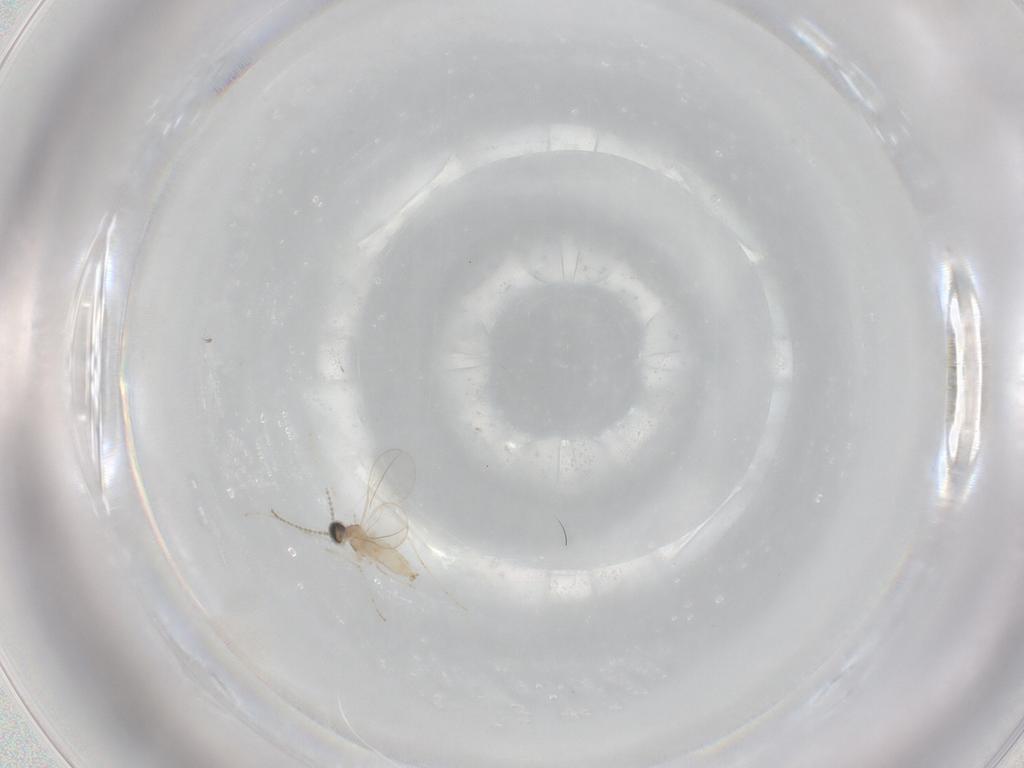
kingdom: Animalia
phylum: Arthropoda
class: Insecta
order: Diptera
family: Cecidomyiidae
